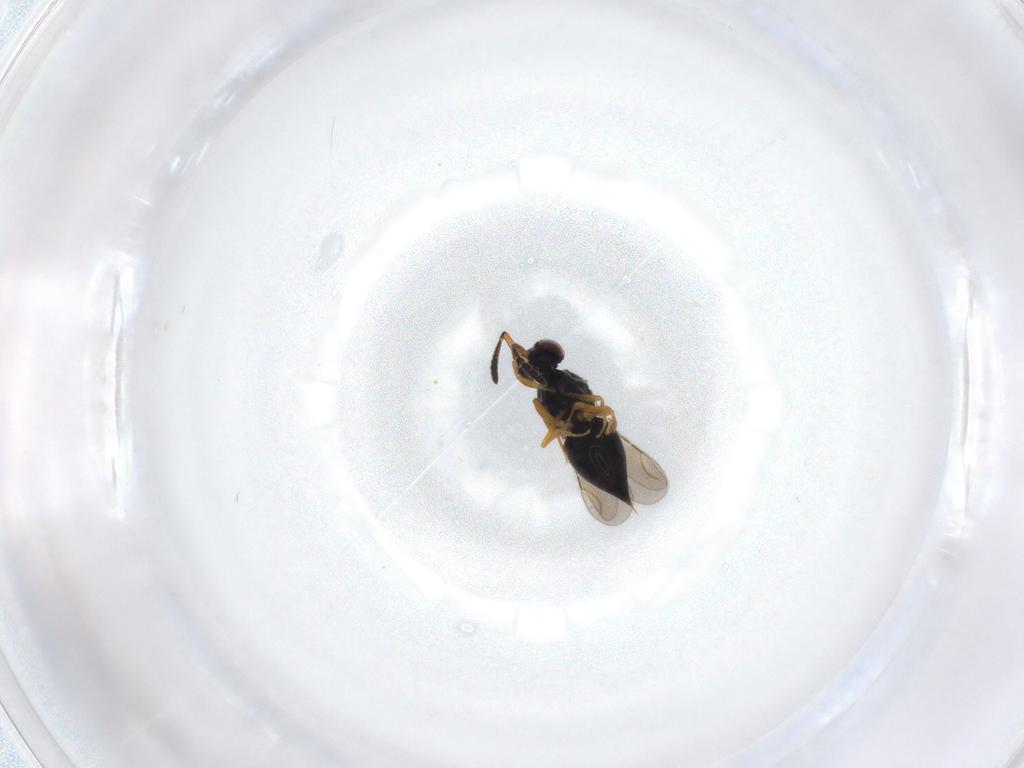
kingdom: Animalia
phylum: Arthropoda
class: Insecta
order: Hymenoptera
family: Ceraphronidae
